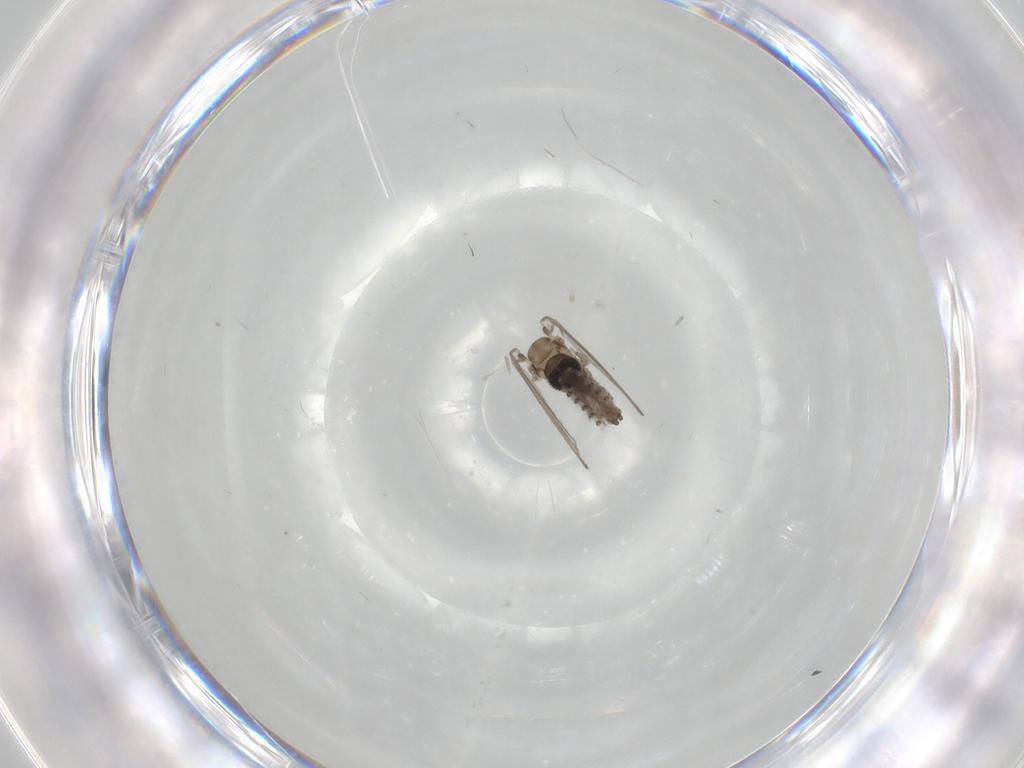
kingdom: Animalia
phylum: Arthropoda
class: Insecta
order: Diptera
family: Psychodidae
